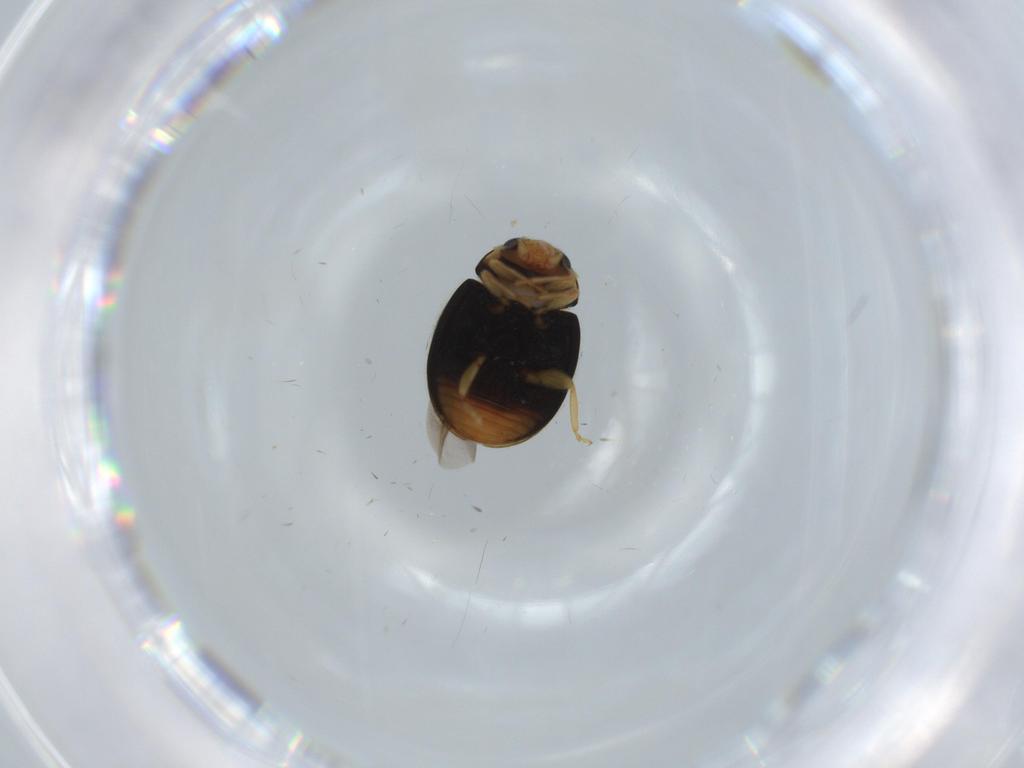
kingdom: Animalia
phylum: Arthropoda
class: Insecta
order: Coleoptera
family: Chrysomelidae
